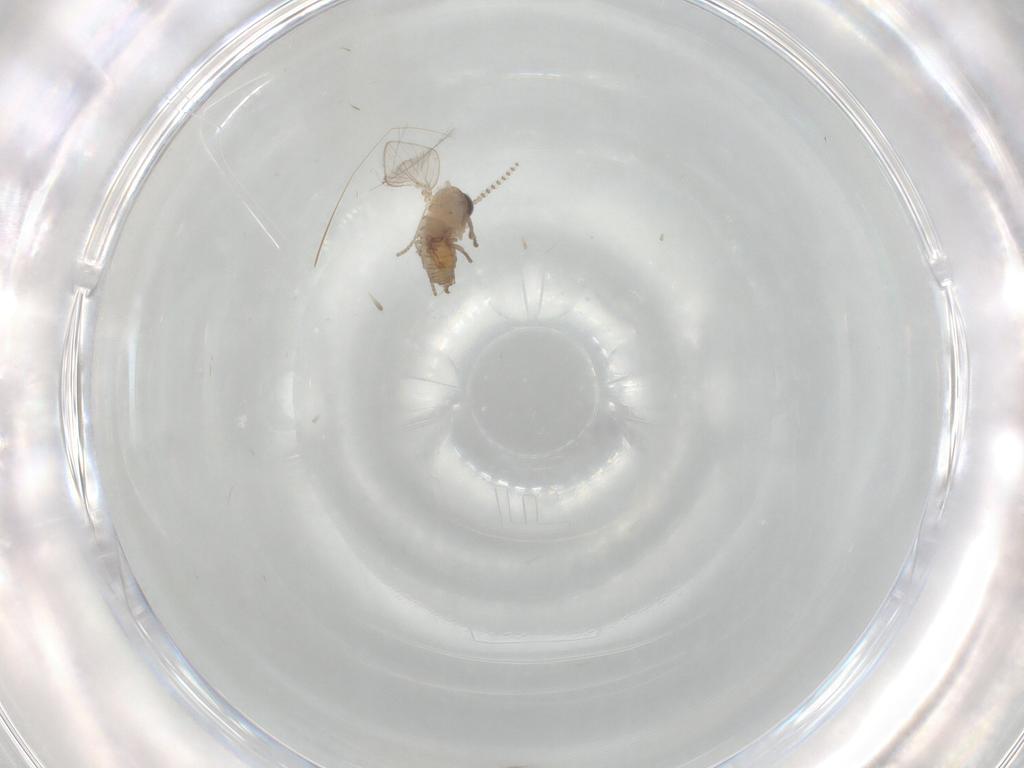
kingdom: Animalia
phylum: Arthropoda
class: Insecta
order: Diptera
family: Psychodidae
